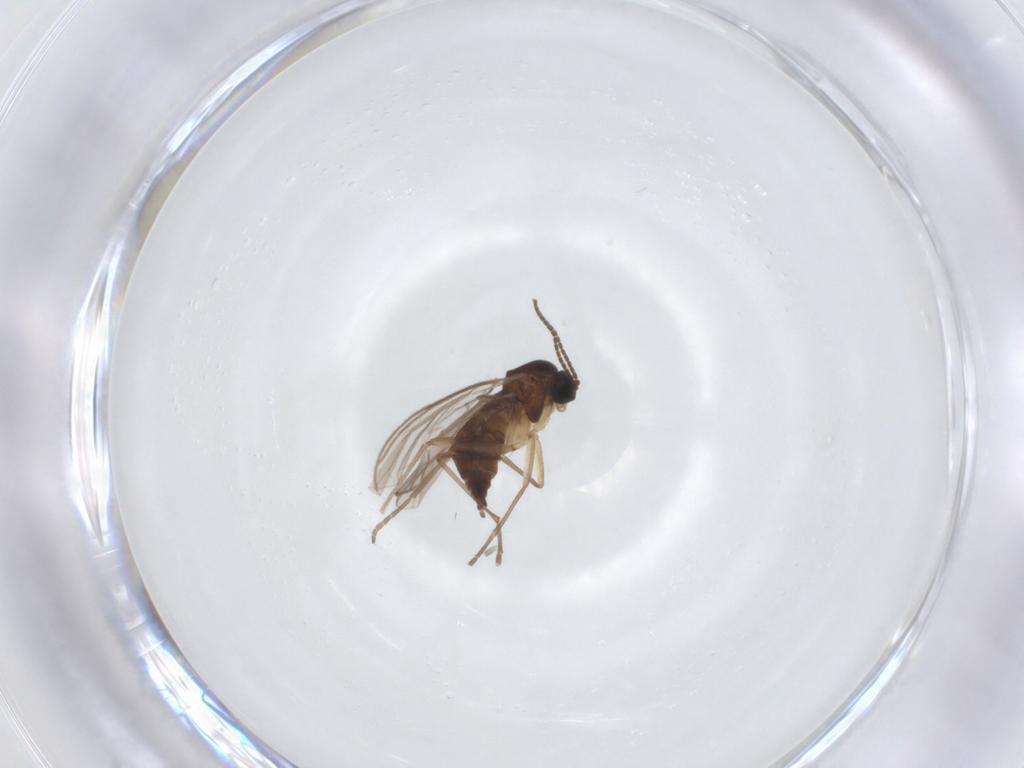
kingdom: Animalia
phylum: Arthropoda
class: Insecta
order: Diptera
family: Sciaridae
